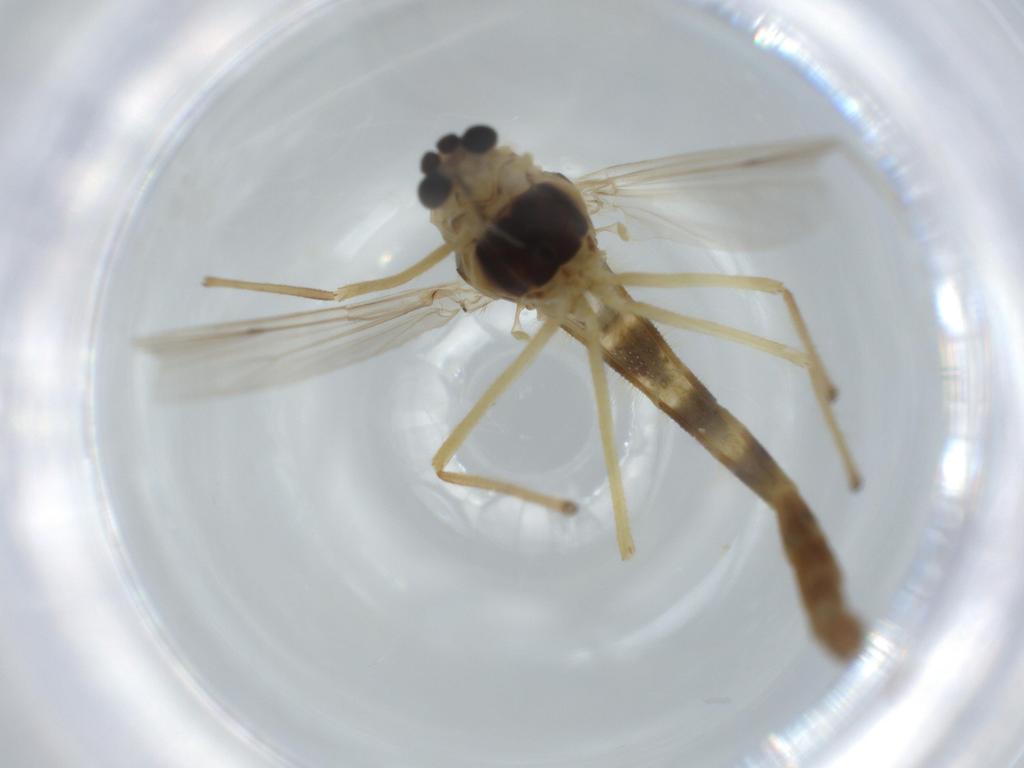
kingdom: Animalia
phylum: Arthropoda
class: Insecta
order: Diptera
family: Chironomidae
